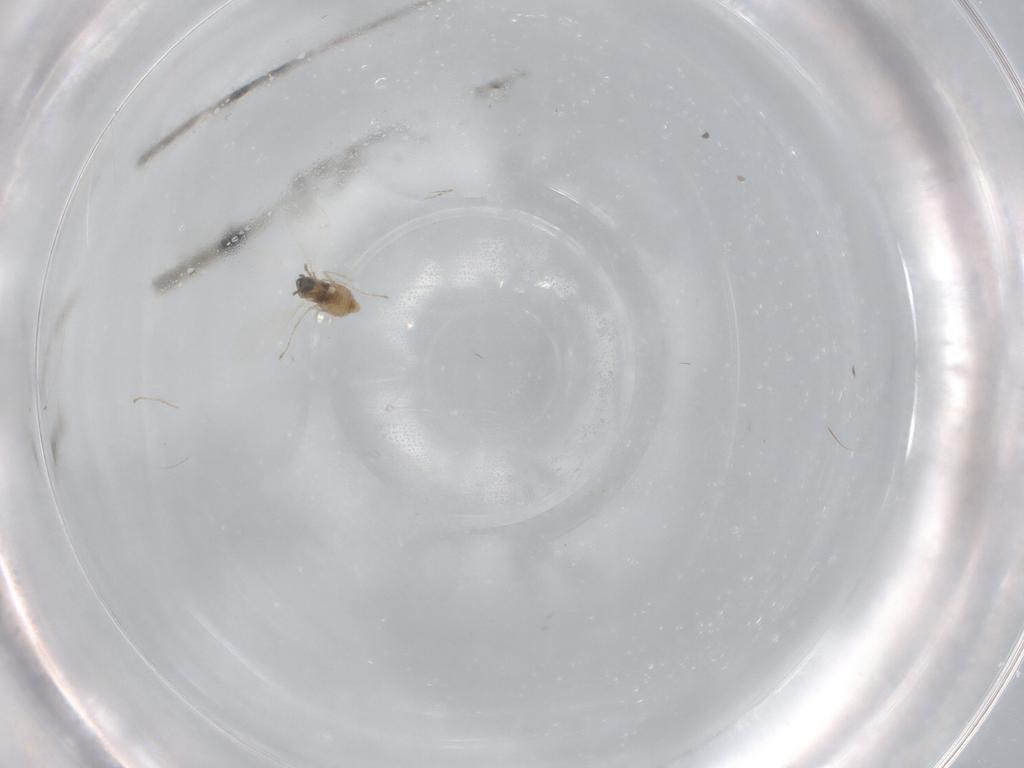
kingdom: Animalia
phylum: Arthropoda
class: Insecta
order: Diptera
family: Cecidomyiidae
